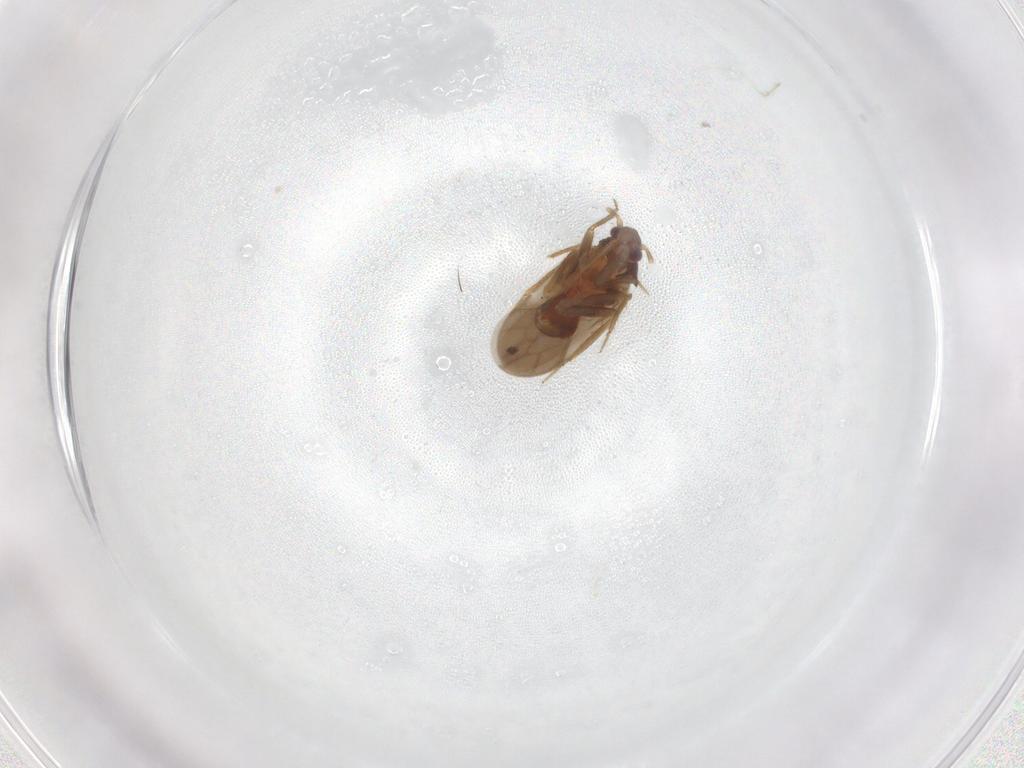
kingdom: Animalia
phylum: Arthropoda
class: Insecta
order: Hemiptera
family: Ceratocombidae
